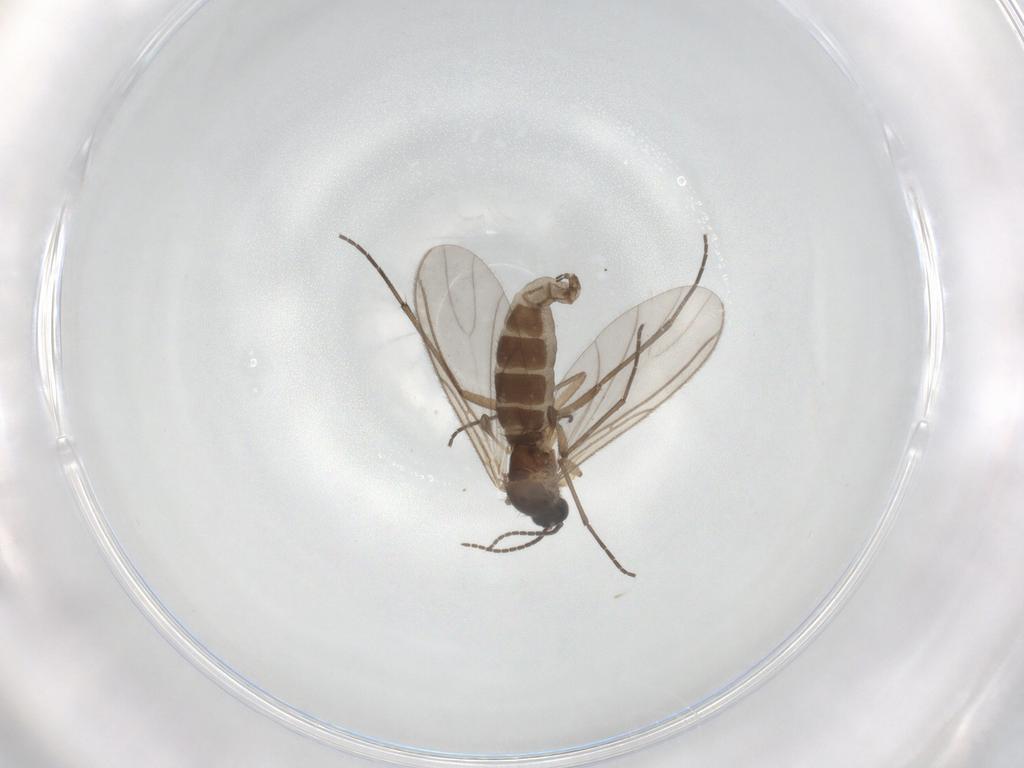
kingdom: Animalia
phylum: Arthropoda
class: Insecta
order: Diptera
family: Sciaridae
